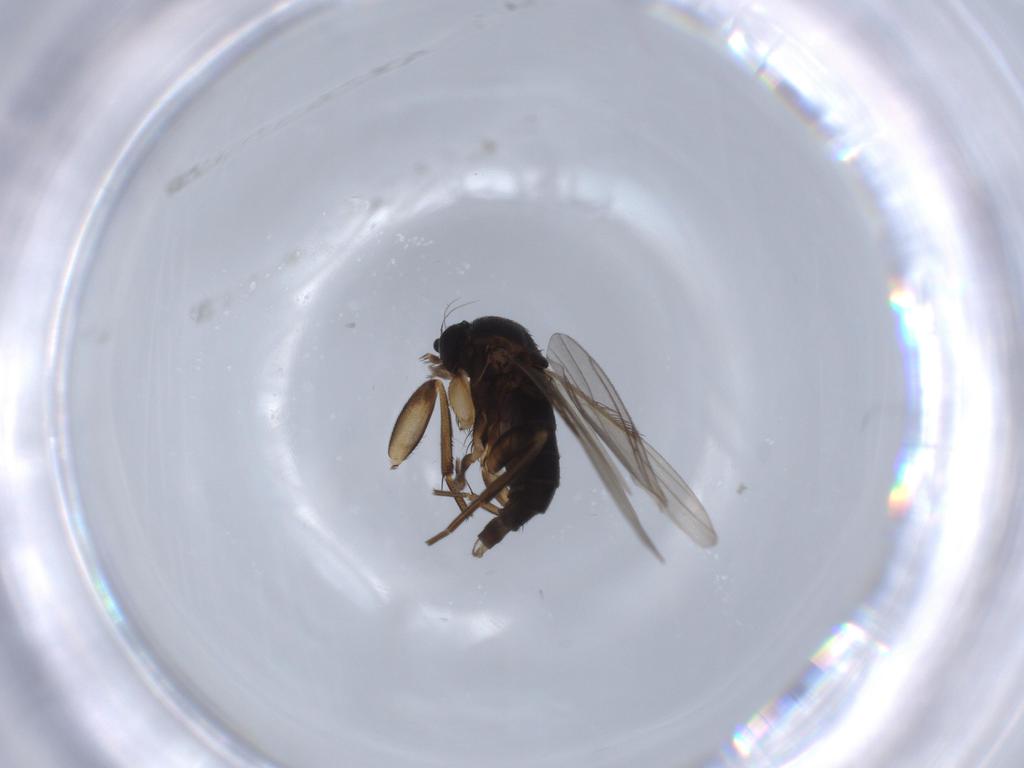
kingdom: Animalia
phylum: Arthropoda
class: Insecta
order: Diptera
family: Phoridae
